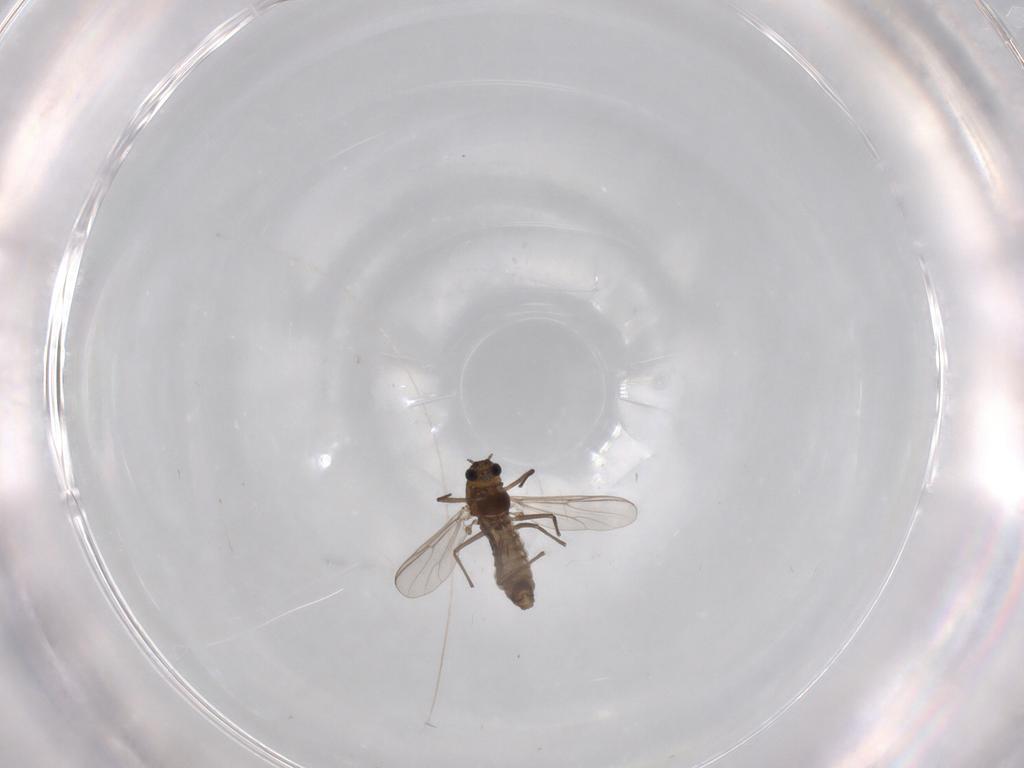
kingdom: Animalia
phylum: Arthropoda
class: Insecta
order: Diptera
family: Chironomidae
